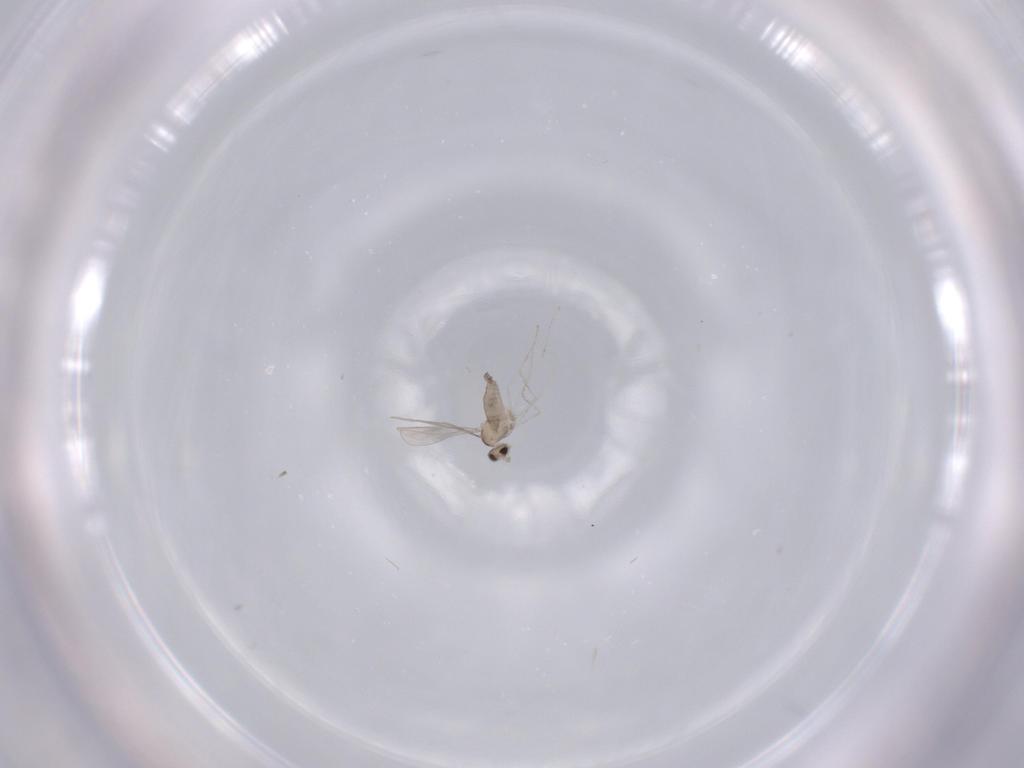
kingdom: Animalia
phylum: Arthropoda
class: Insecta
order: Diptera
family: Cecidomyiidae
